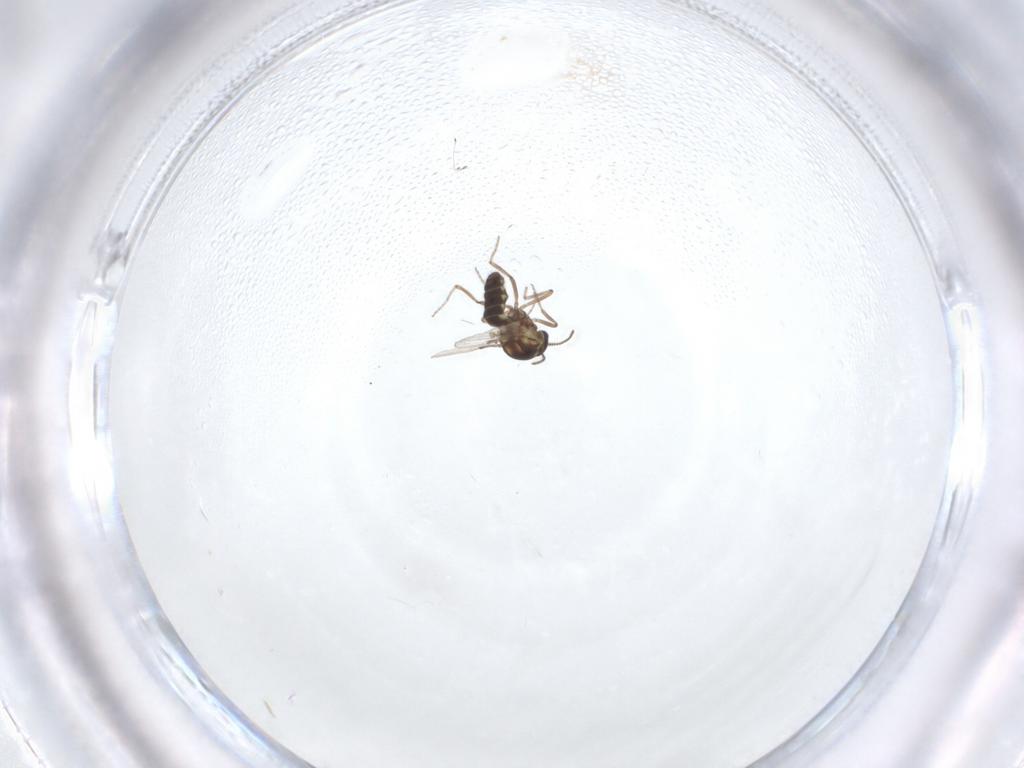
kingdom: Animalia
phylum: Arthropoda
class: Insecta
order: Diptera
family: Ceratopogonidae
